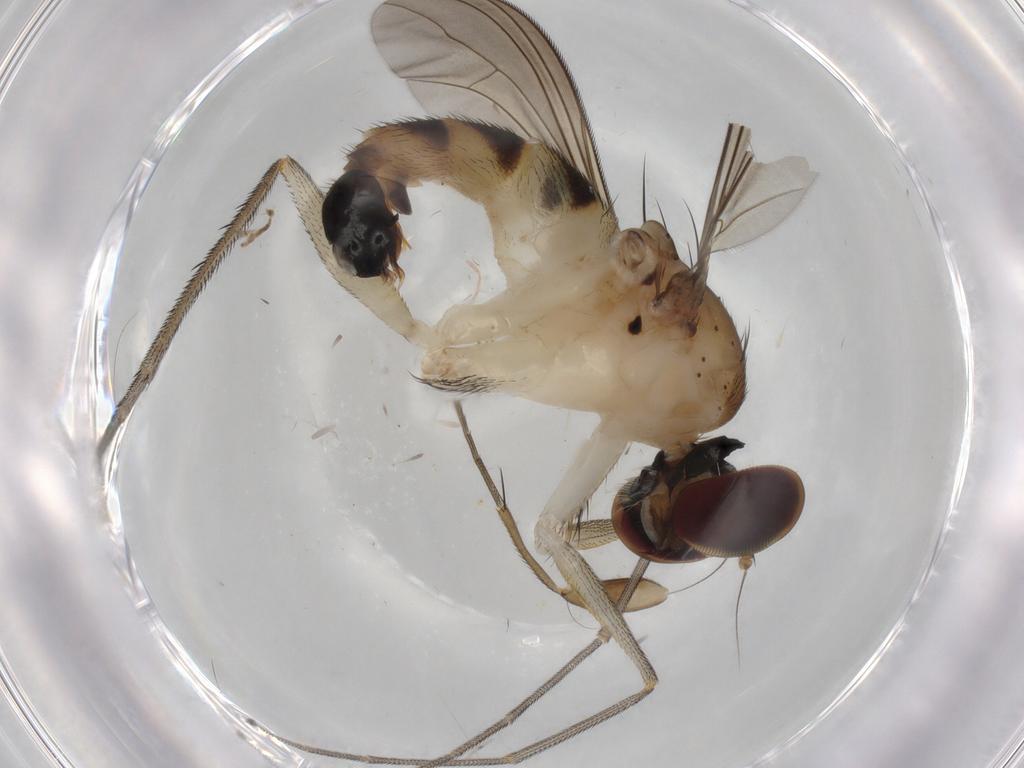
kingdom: Animalia
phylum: Arthropoda
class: Insecta
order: Diptera
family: Dolichopodidae
